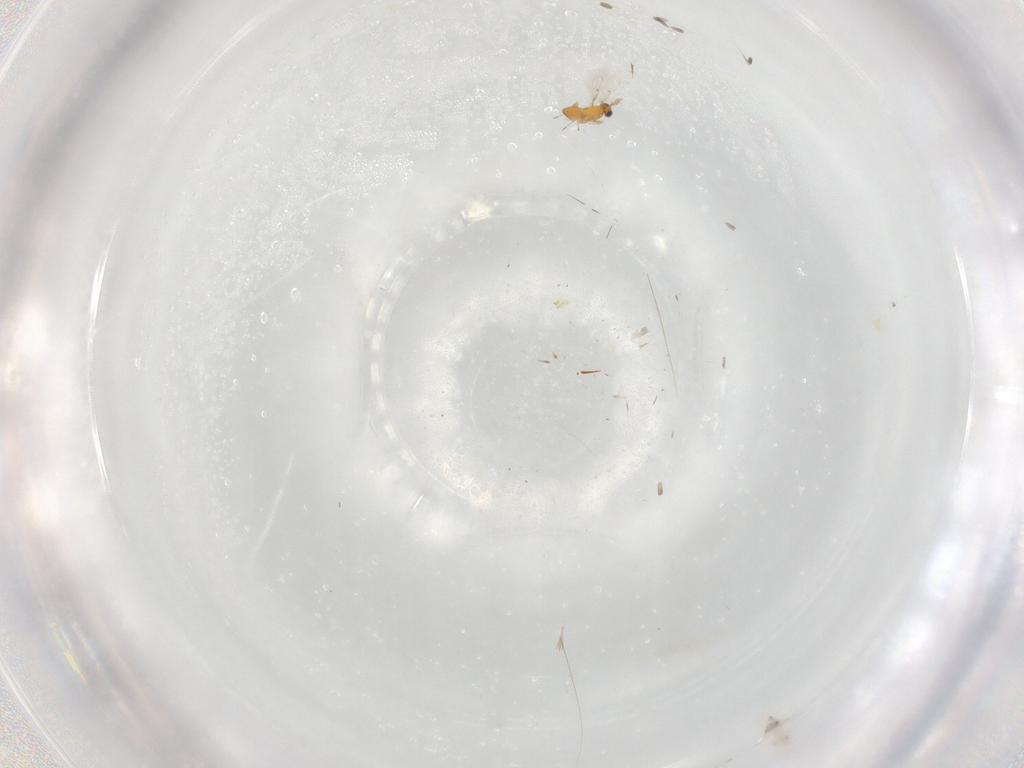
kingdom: Animalia
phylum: Arthropoda
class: Insecta
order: Hymenoptera
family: Trichogrammatidae
